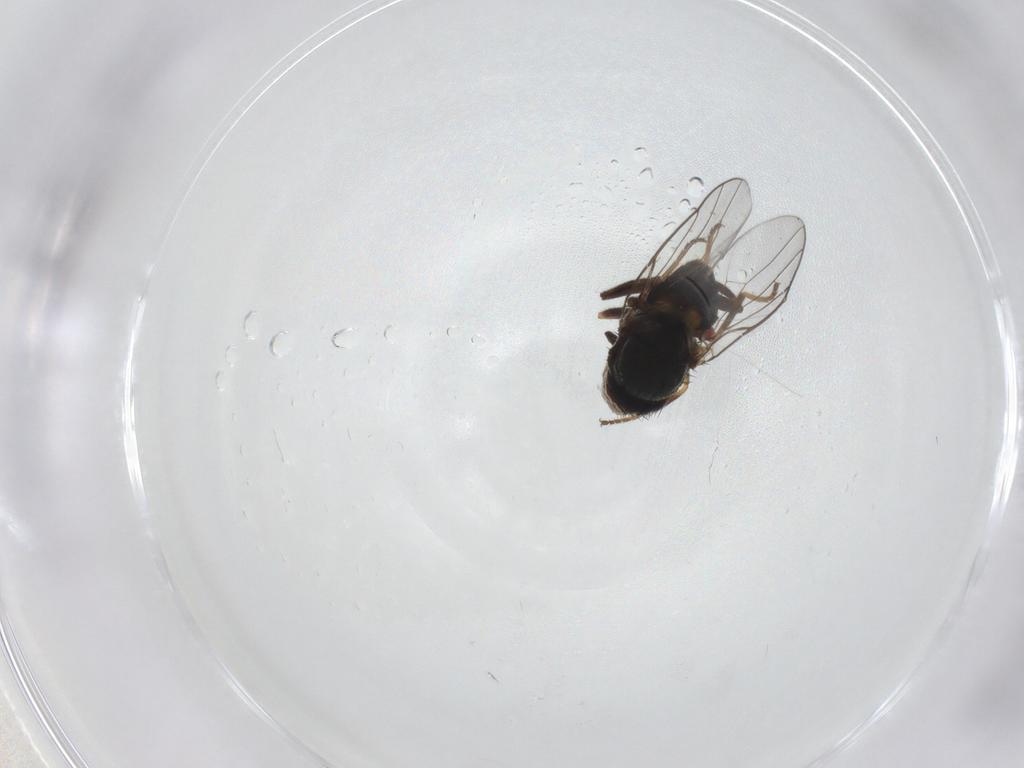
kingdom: Animalia
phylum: Arthropoda
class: Insecta
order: Diptera
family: Chloropidae
